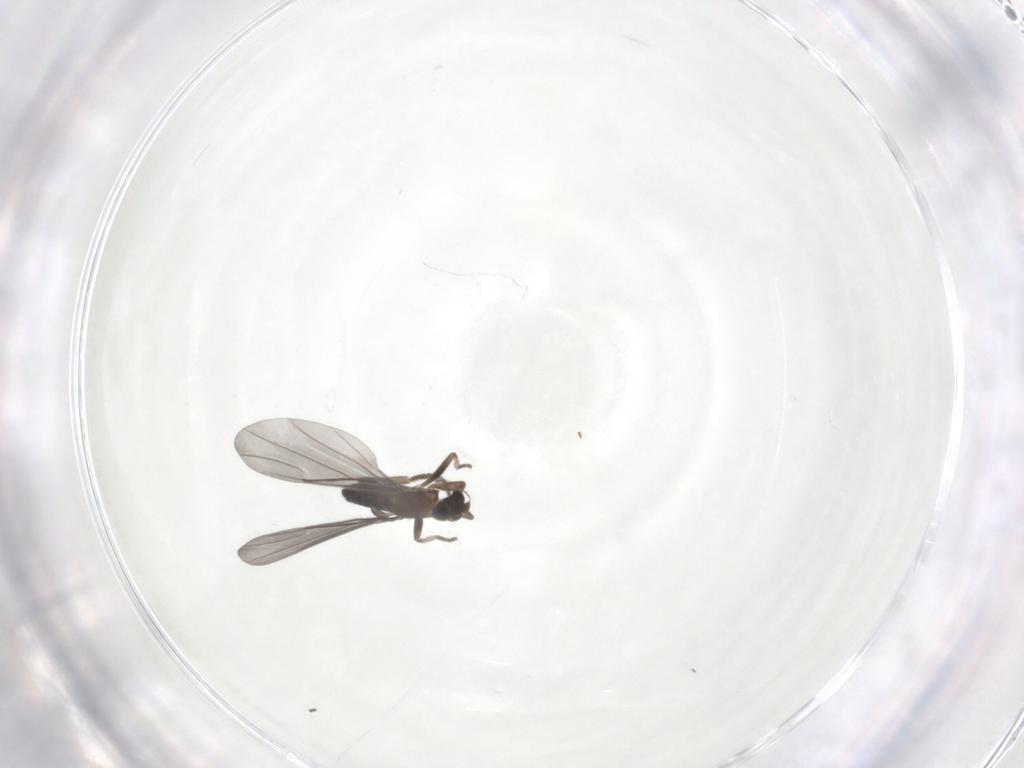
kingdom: Animalia
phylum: Arthropoda
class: Insecta
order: Diptera
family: Phoridae
